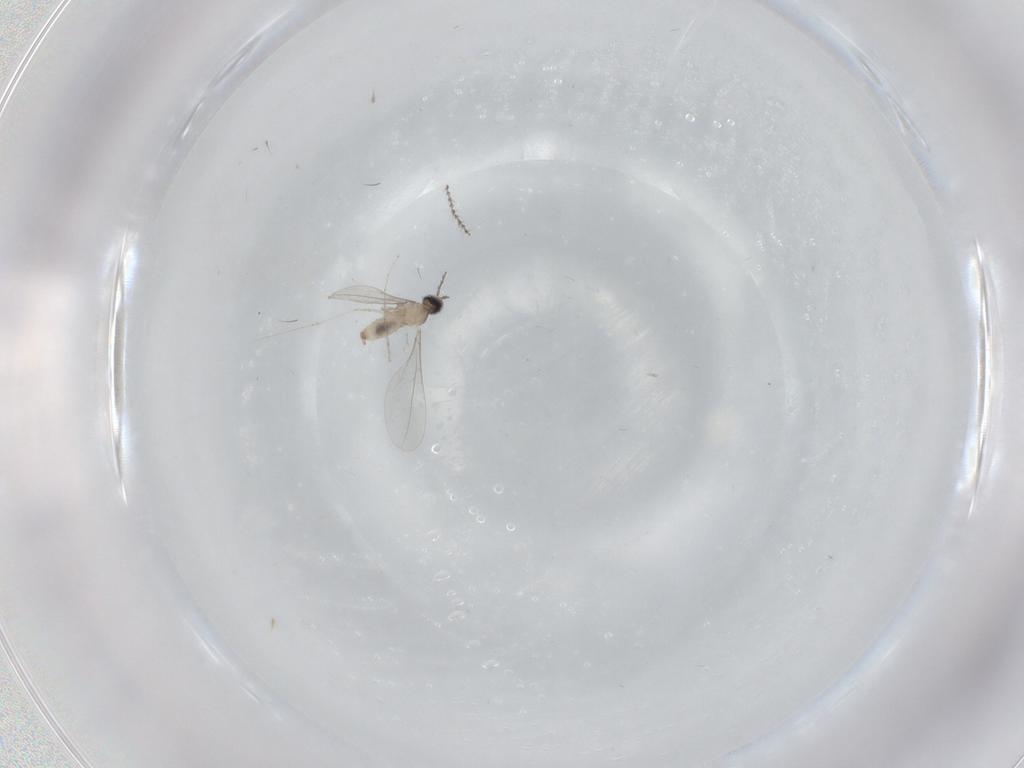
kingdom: Animalia
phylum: Arthropoda
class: Insecta
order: Diptera
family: Cecidomyiidae
